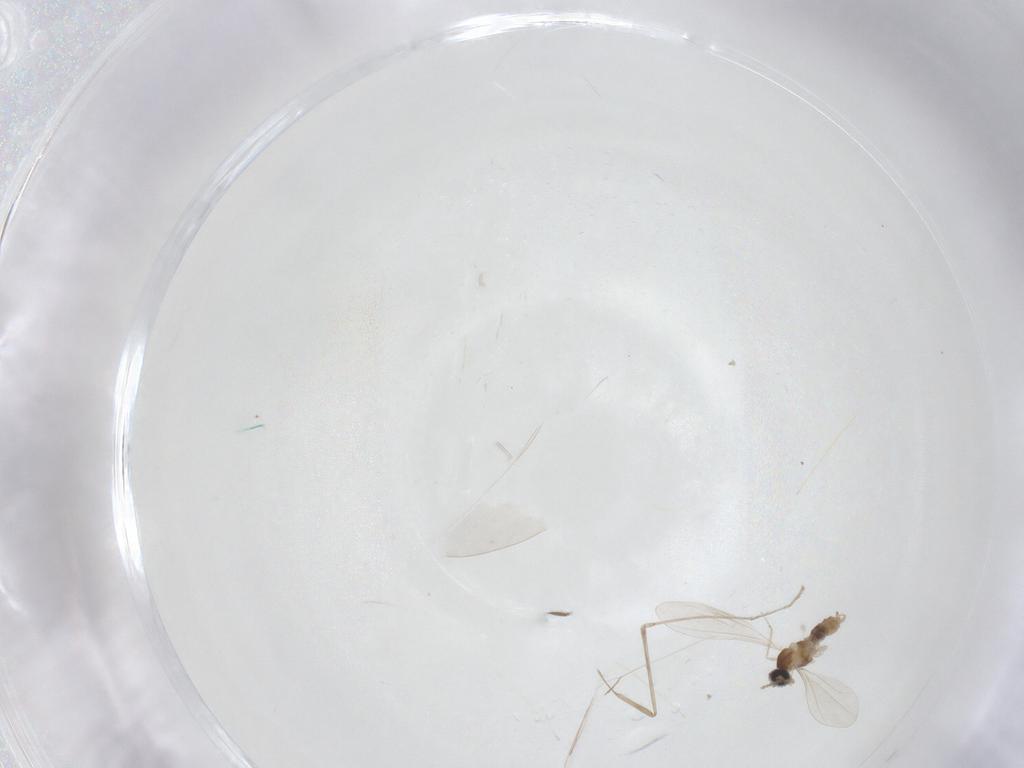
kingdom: Animalia
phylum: Arthropoda
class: Insecta
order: Diptera
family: Cecidomyiidae
